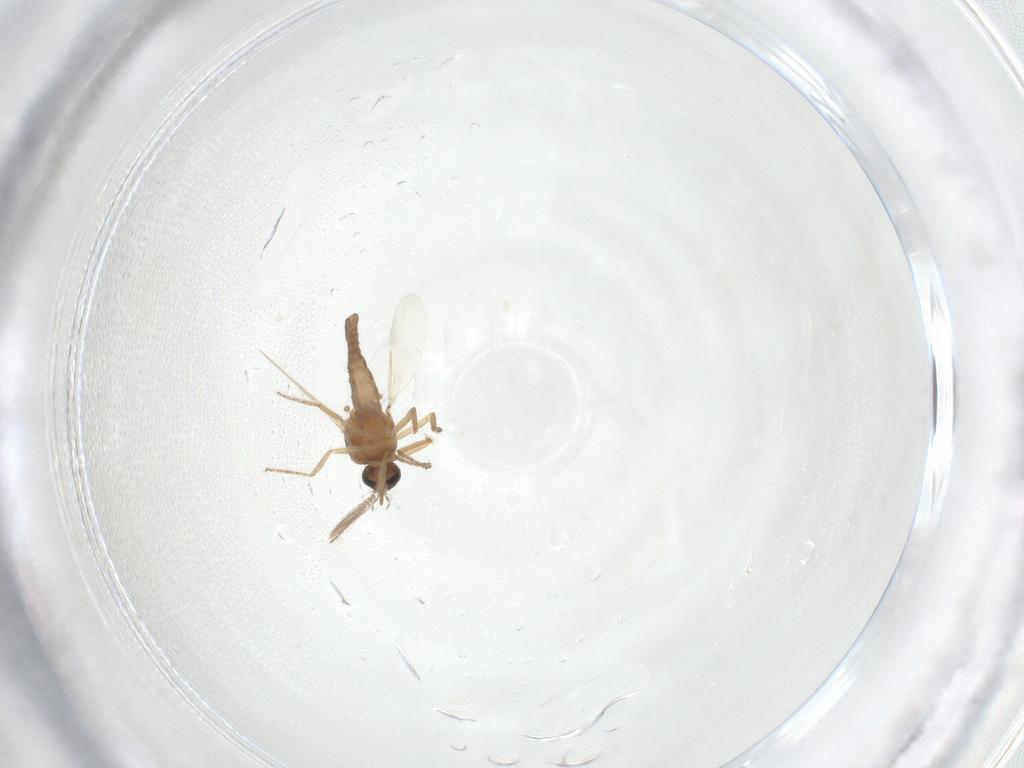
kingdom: Animalia
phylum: Arthropoda
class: Insecta
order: Diptera
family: Ceratopogonidae
